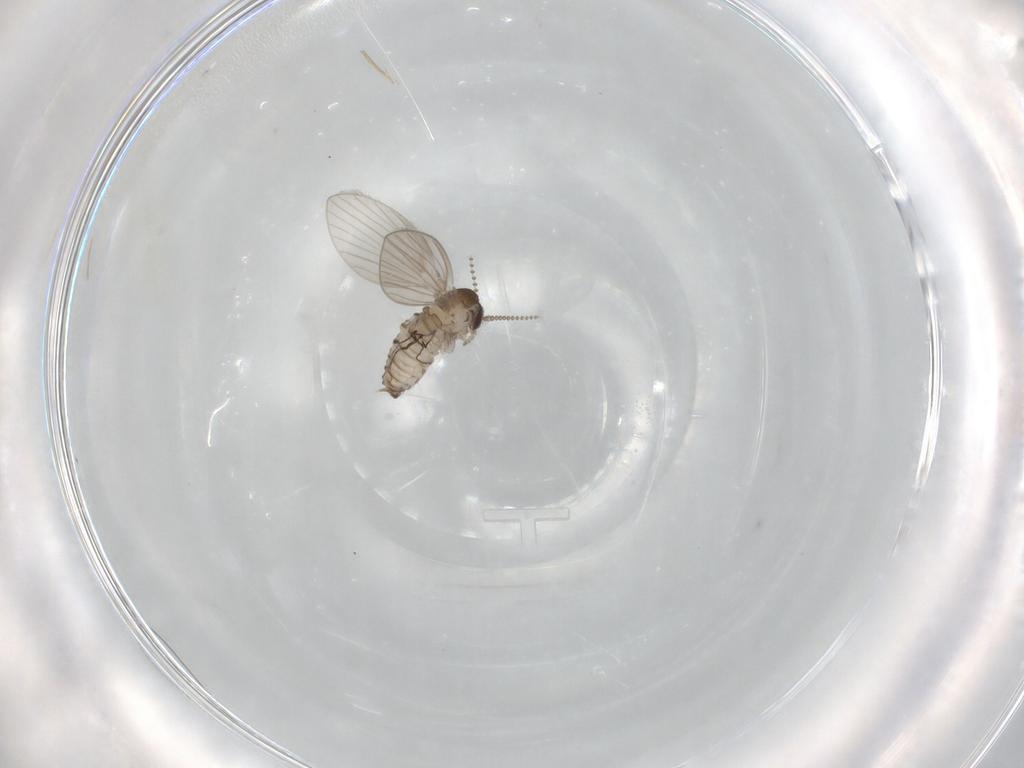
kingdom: Animalia
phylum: Arthropoda
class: Insecta
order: Diptera
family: Psychodidae
